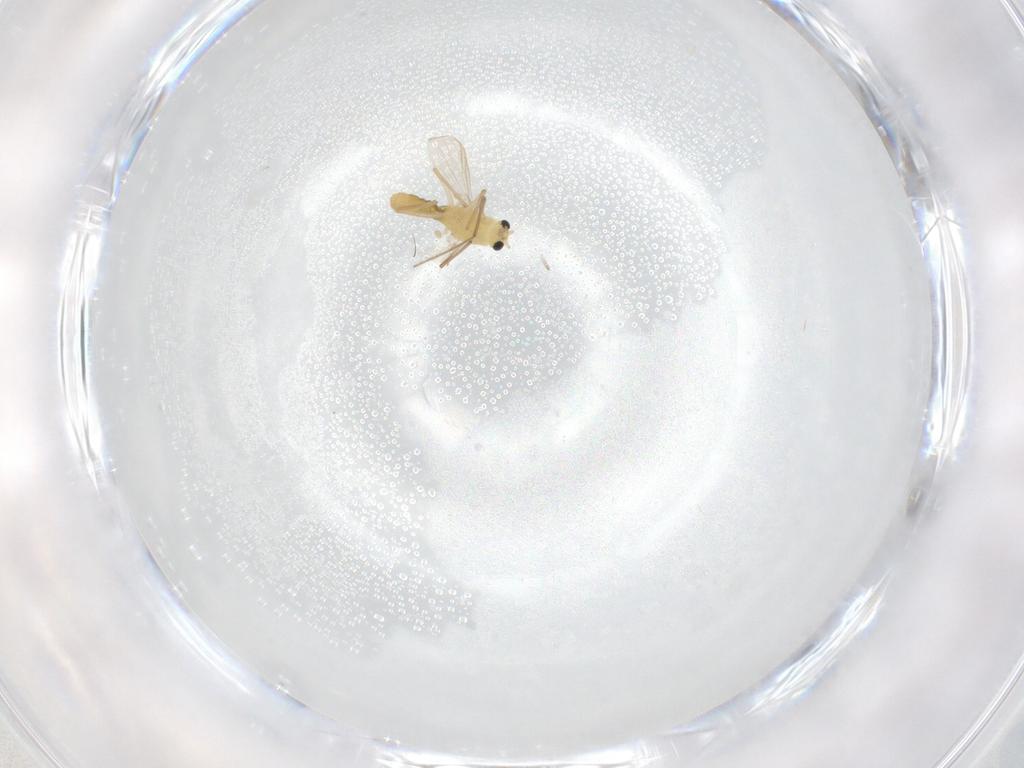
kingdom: Animalia
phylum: Arthropoda
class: Insecta
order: Diptera
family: Chironomidae
